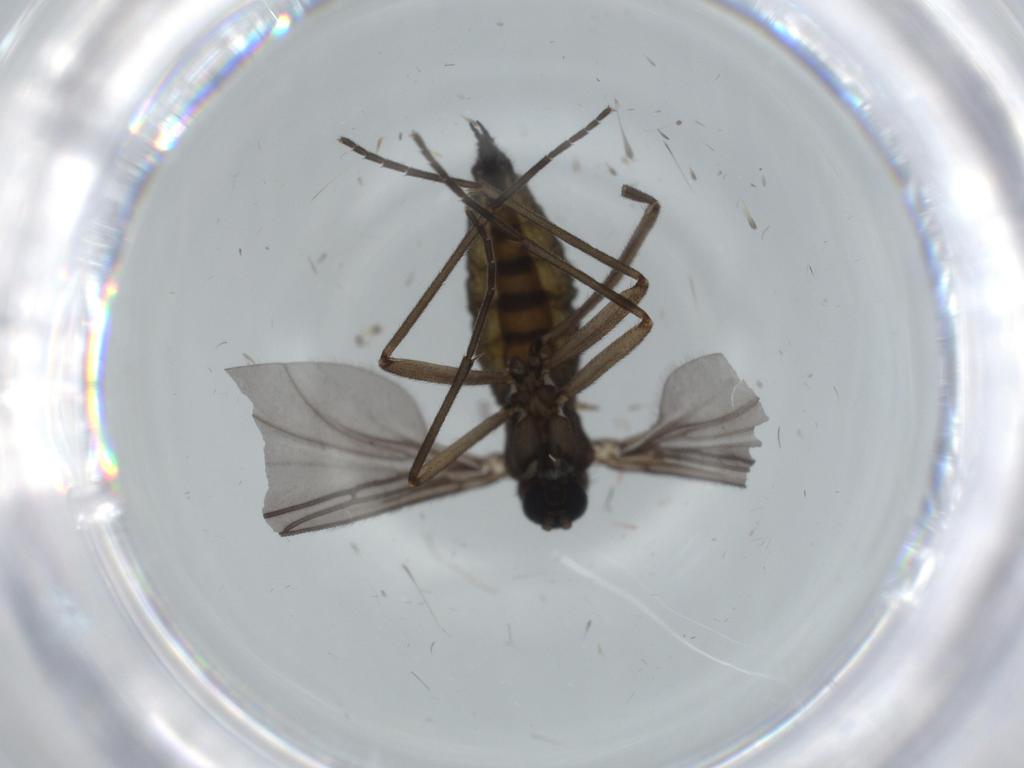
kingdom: Animalia
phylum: Arthropoda
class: Insecta
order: Diptera
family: Sciaridae
